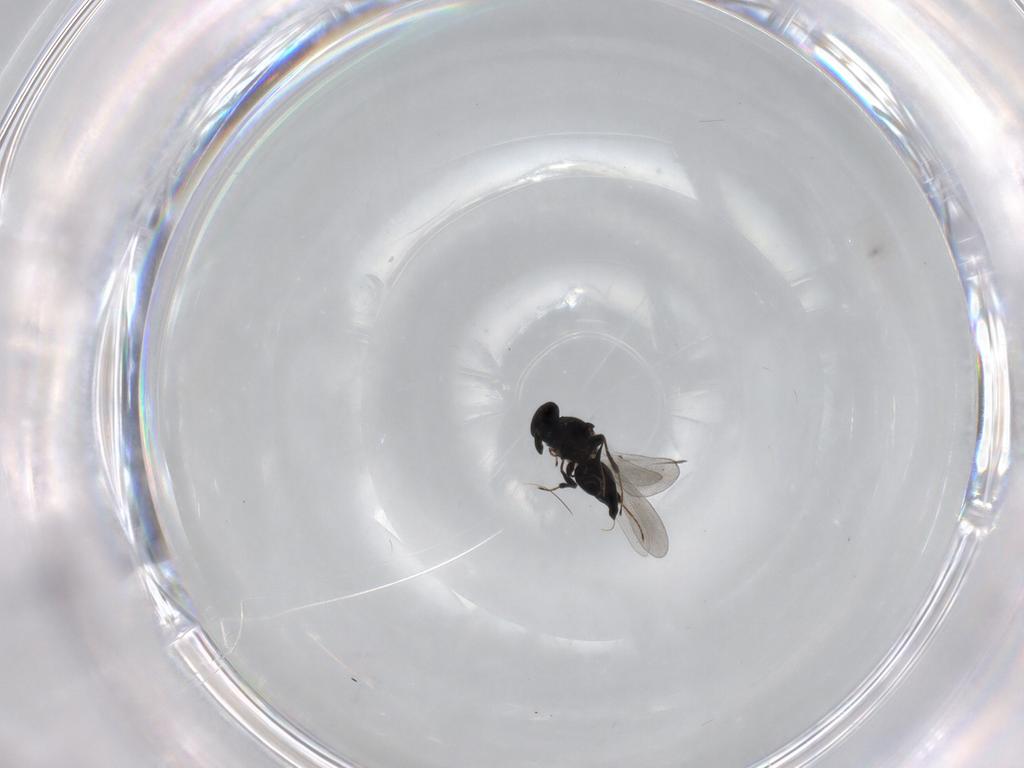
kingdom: Animalia
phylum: Arthropoda
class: Insecta
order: Hymenoptera
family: Platygastridae
